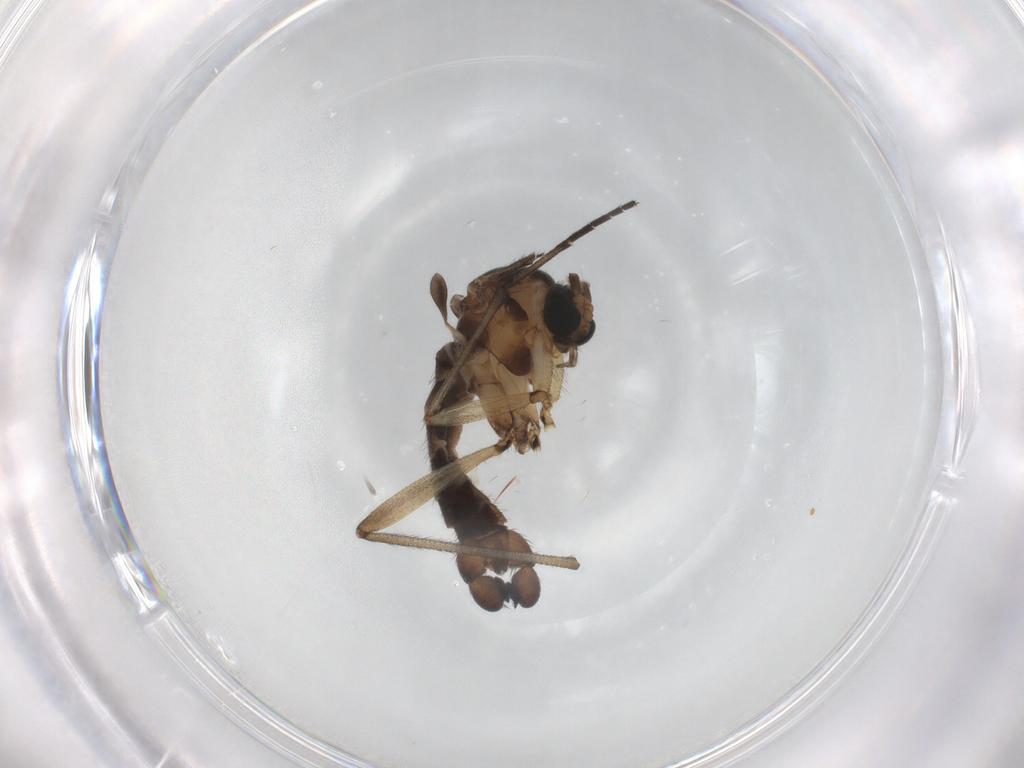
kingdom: Animalia
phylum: Arthropoda
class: Insecta
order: Diptera
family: Sciaridae
